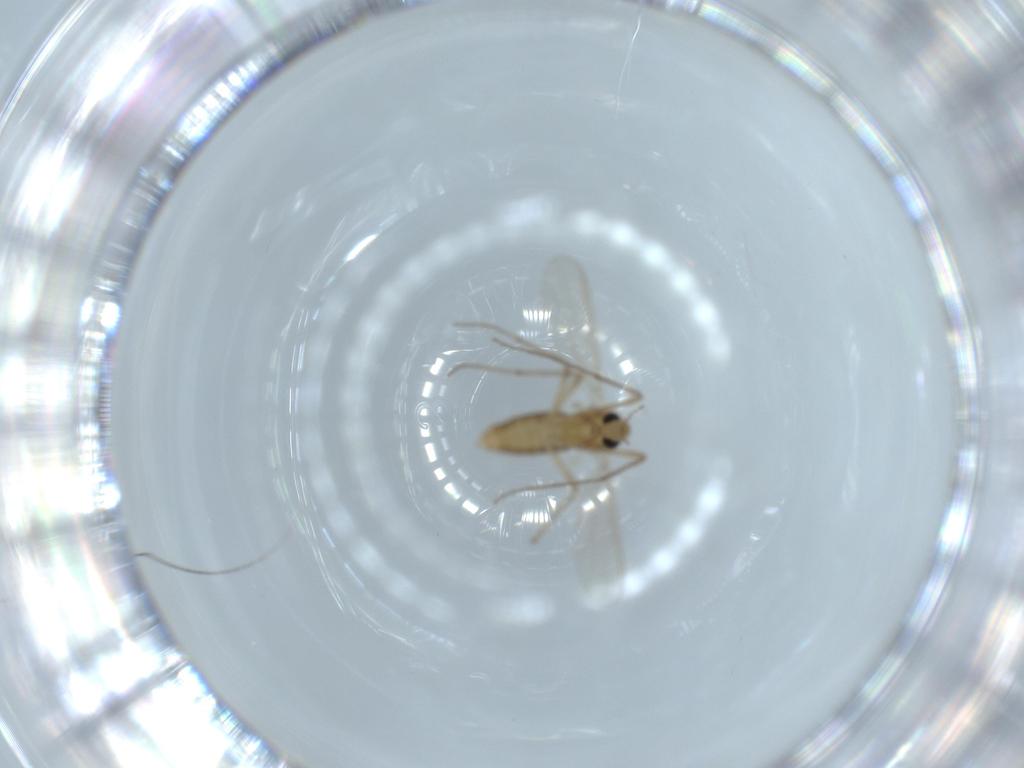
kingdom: Animalia
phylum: Arthropoda
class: Insecta
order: Diptera
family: Chironomidae
